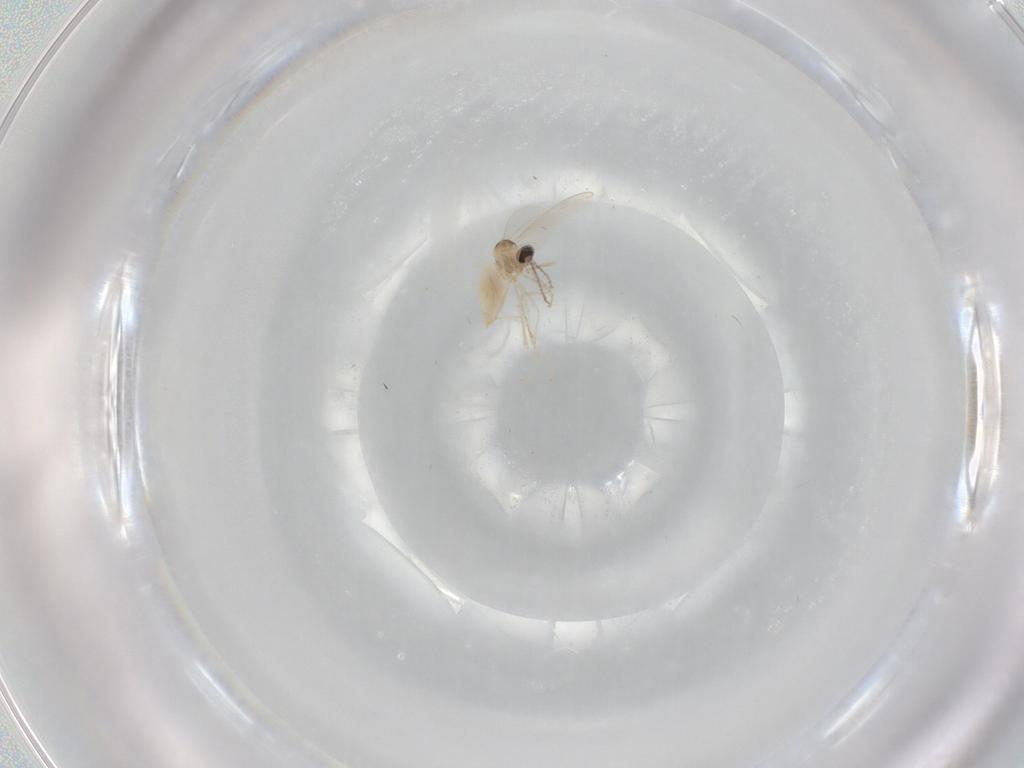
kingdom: Animalia
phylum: Arthropoda
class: Insecta
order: Diptera
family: Cecidomyiidae
